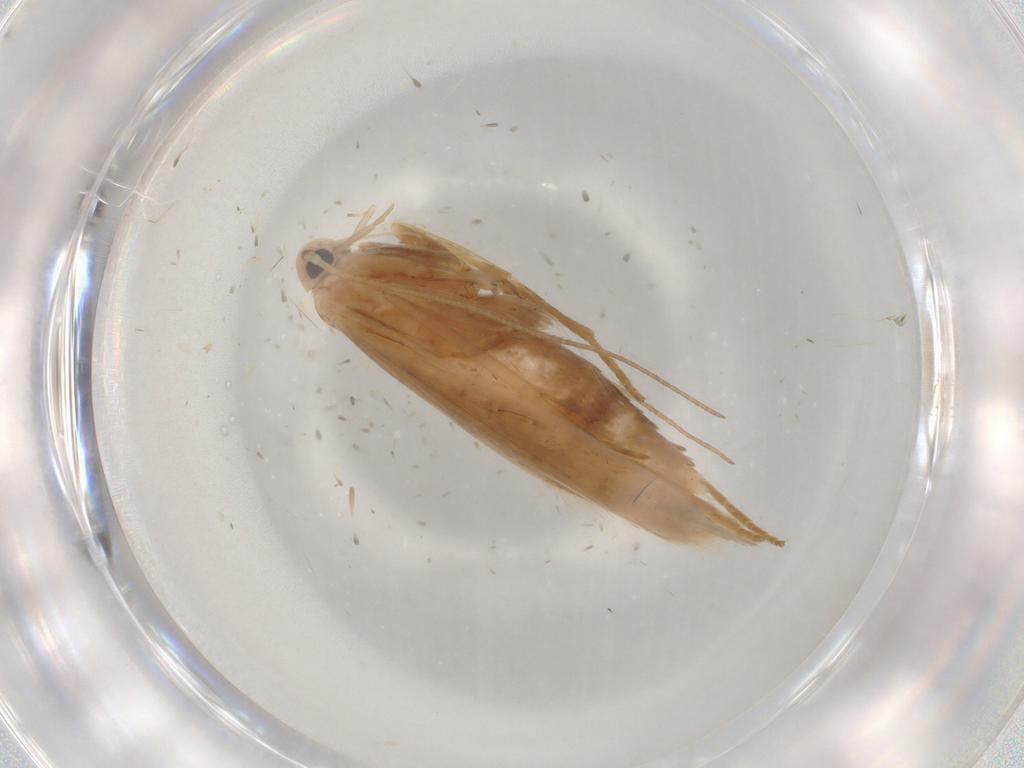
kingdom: Animalia
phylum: Arthropoda
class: Insecta
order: Lepidoptera
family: Xyloryctidae
